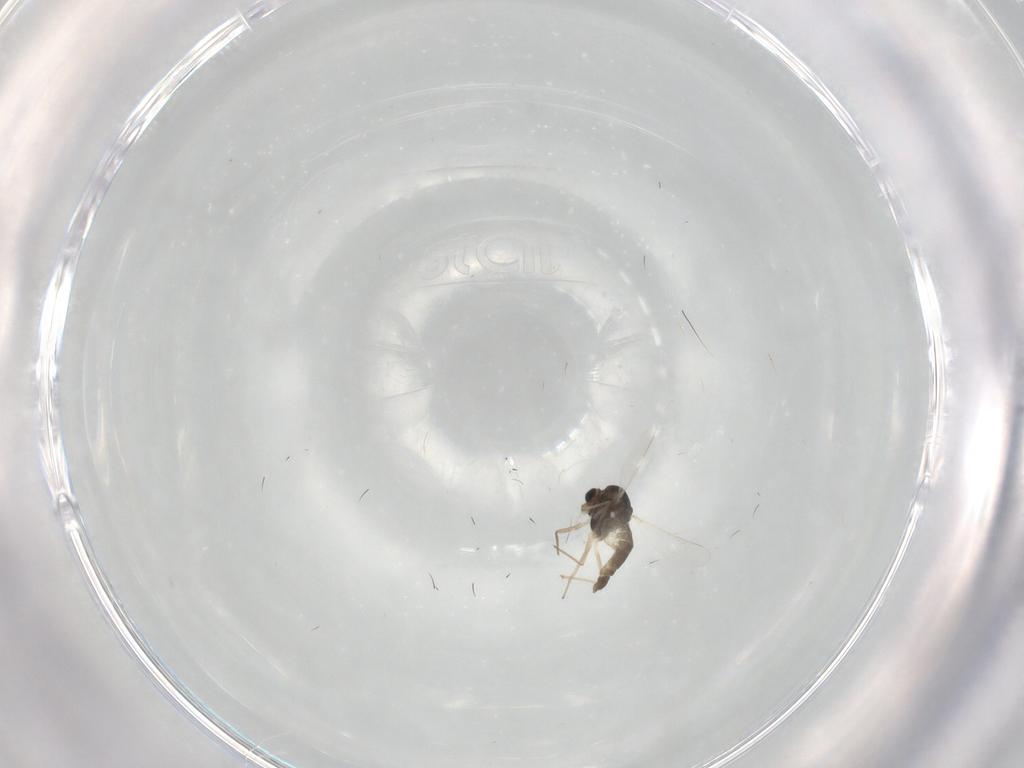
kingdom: Animalia
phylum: Arthropoda
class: Insecta
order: Diptera
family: Chironomidae
